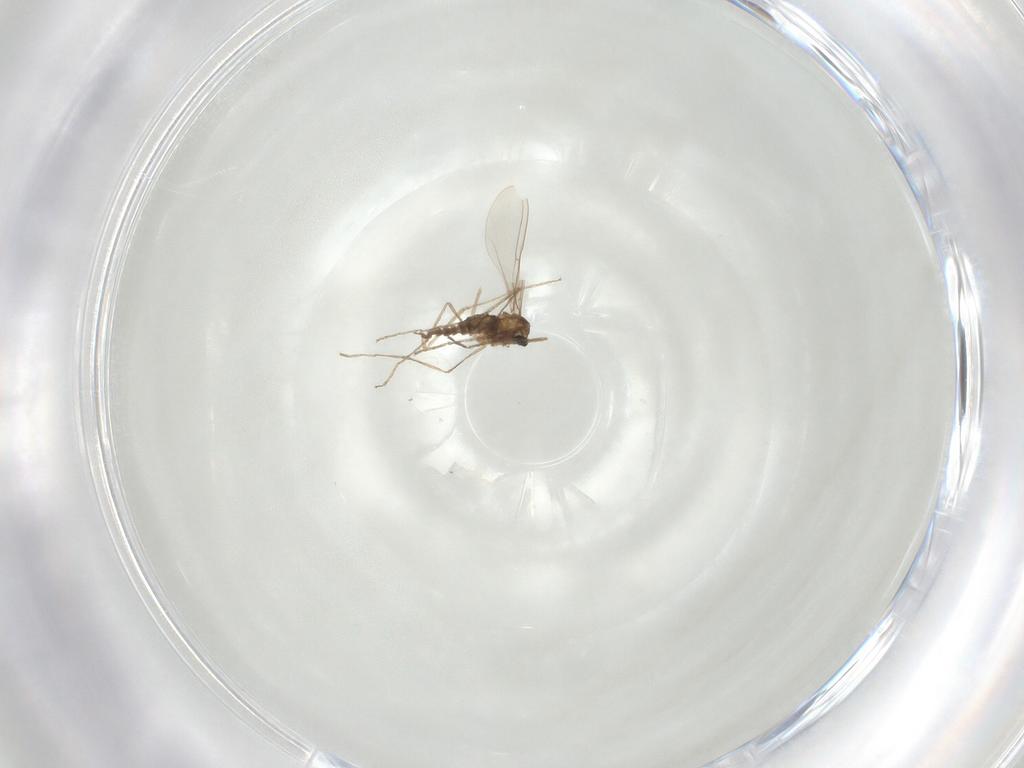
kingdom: Animalia
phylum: Arthropoda
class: Insecta
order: Diptera
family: Cecidomyiidae
